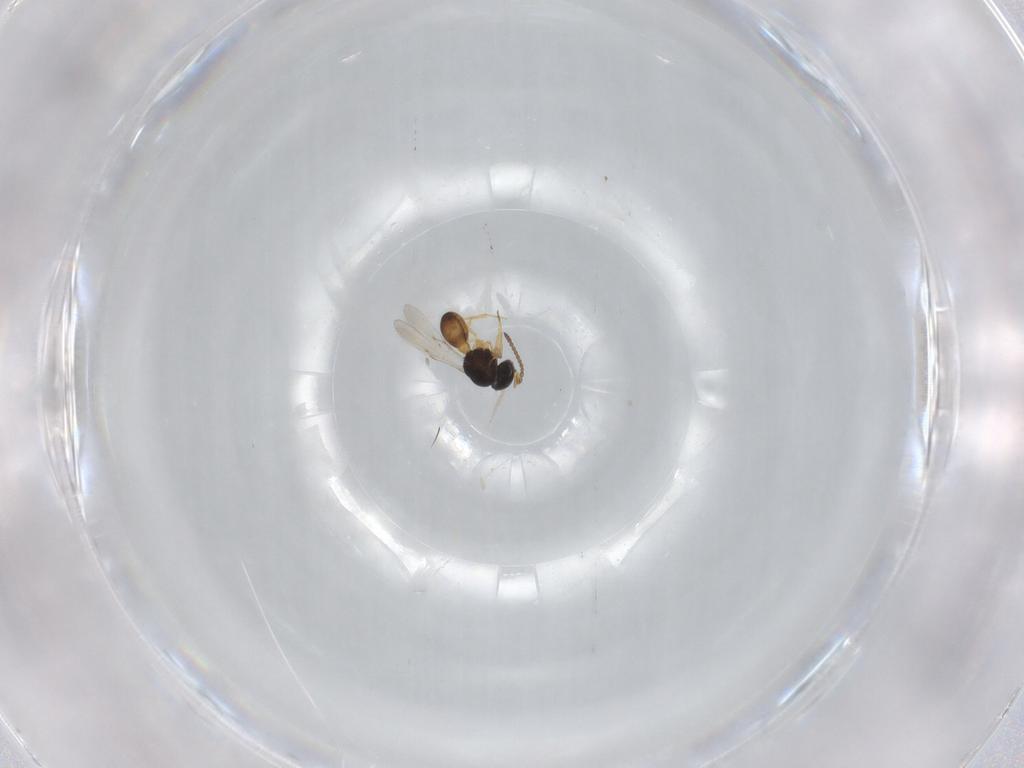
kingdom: Animalia
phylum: Arthropoda
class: Insecta
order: Hymenoptera
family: Scelionidae
